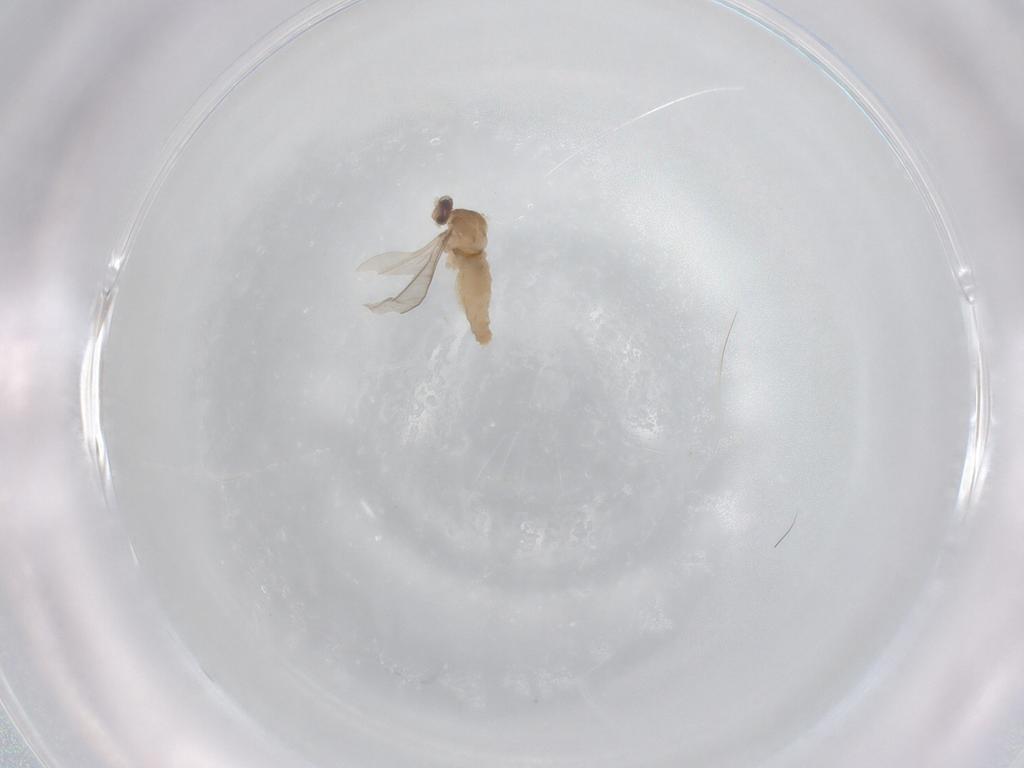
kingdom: Animalia
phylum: Arthropoda
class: Insecta
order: Diptera
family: Cecidomyiidae
